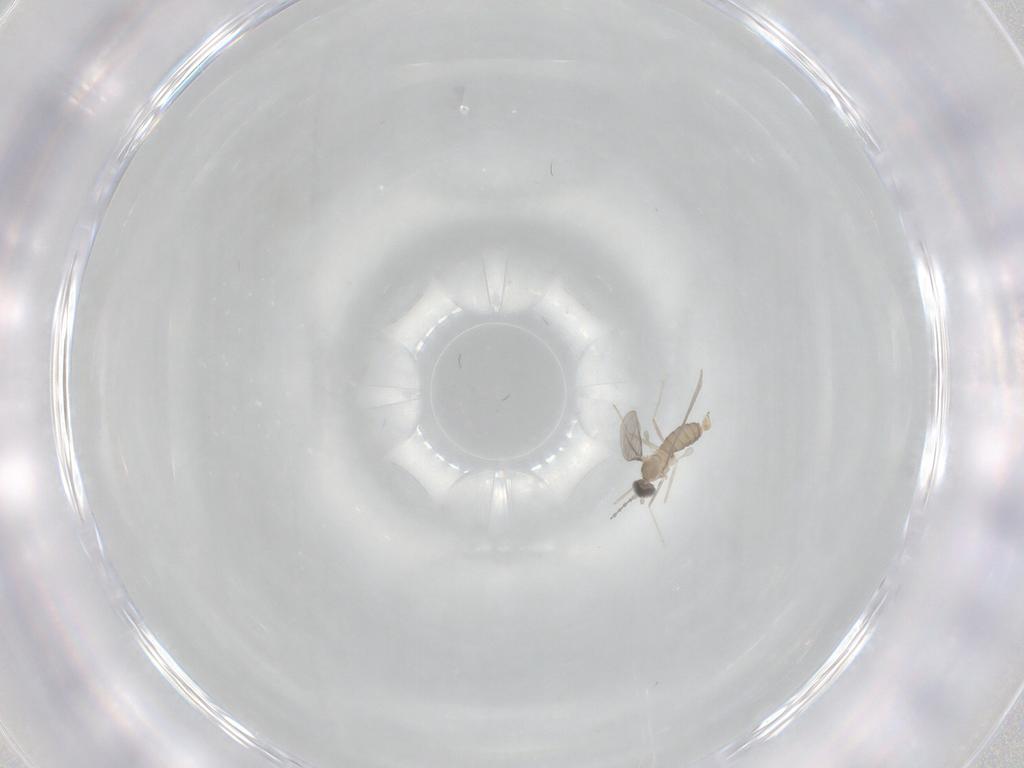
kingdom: Animalia
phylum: Arthropoda
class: Insecta
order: Diptera
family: Cecidomyiidae
